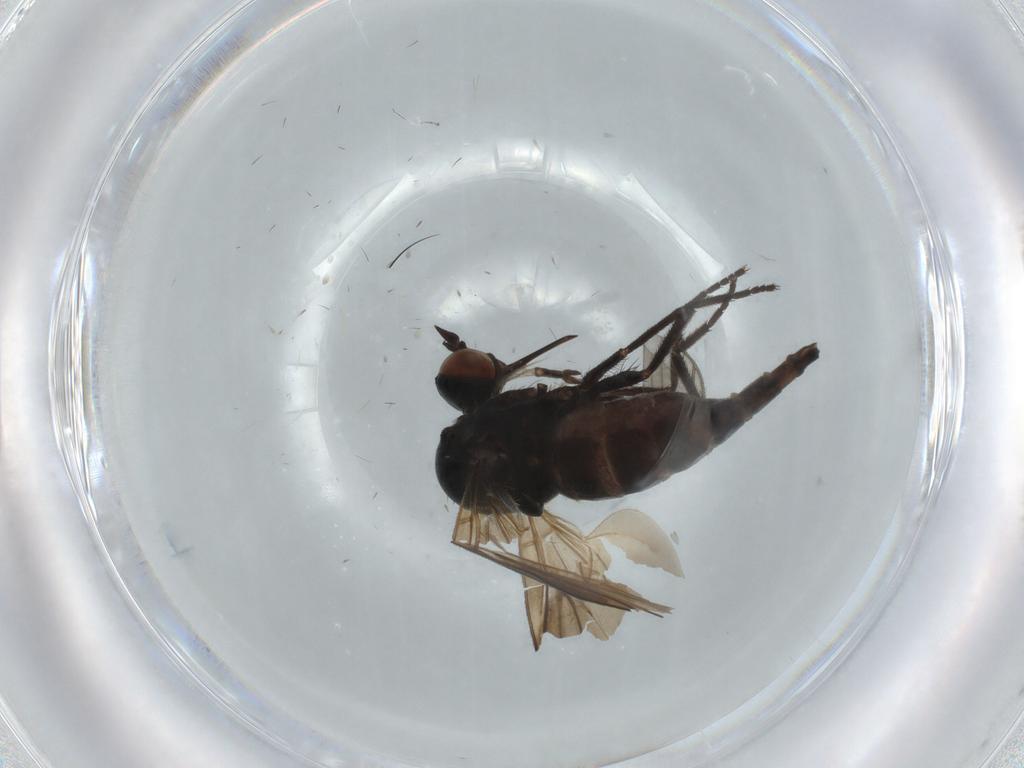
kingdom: Animalia
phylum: Arthropoda
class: Insecta
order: Diptera
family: Empididae
